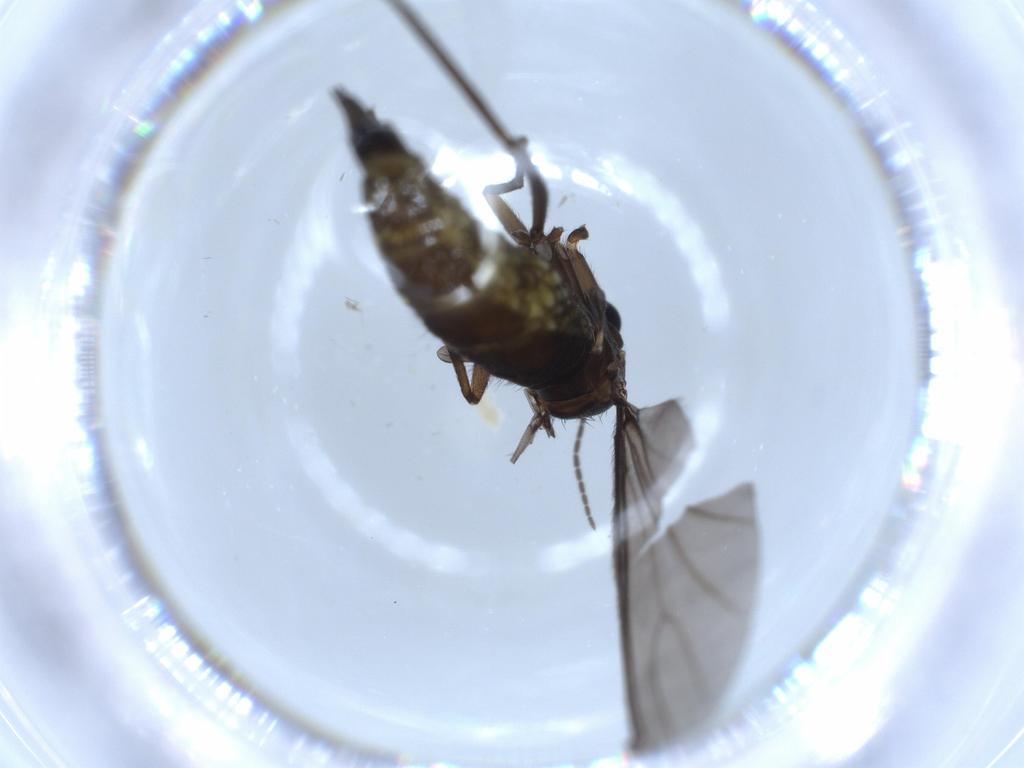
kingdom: Animalia
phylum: Arthropoda
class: Insecta
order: Diptera
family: Sciaridae
